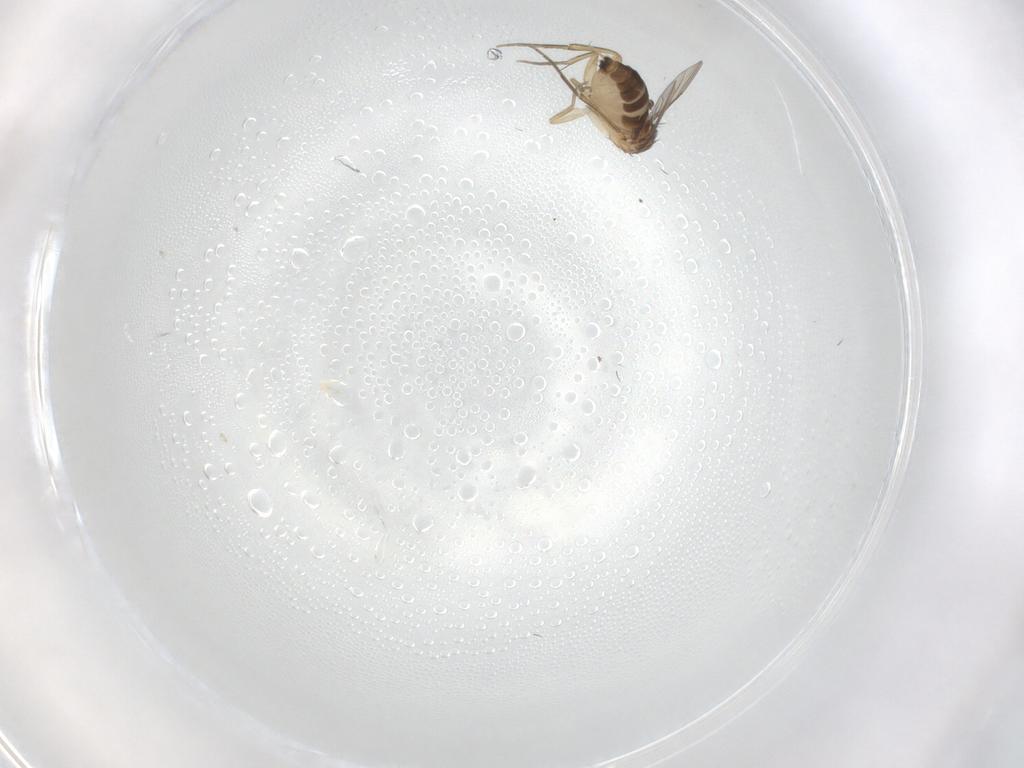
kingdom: Animalia
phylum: Arthropoda
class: Insecta
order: Diptera
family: Phoridae
